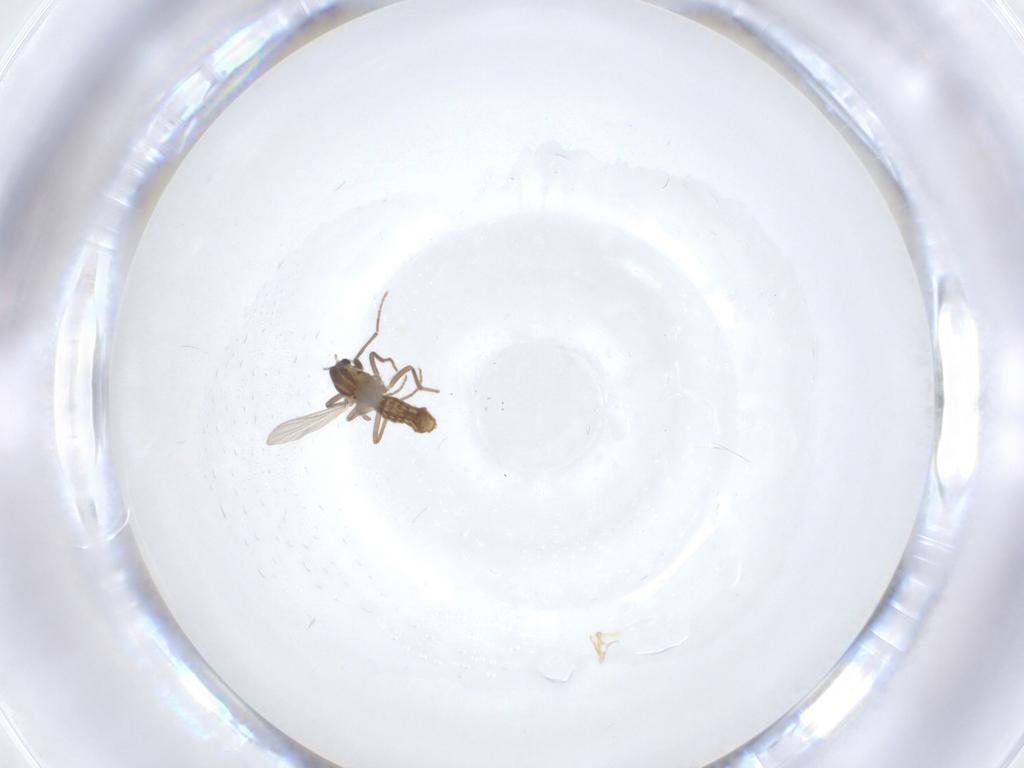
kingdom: Animalia
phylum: Arthropoda
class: Insecta
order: Diptera
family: Chironomidae
